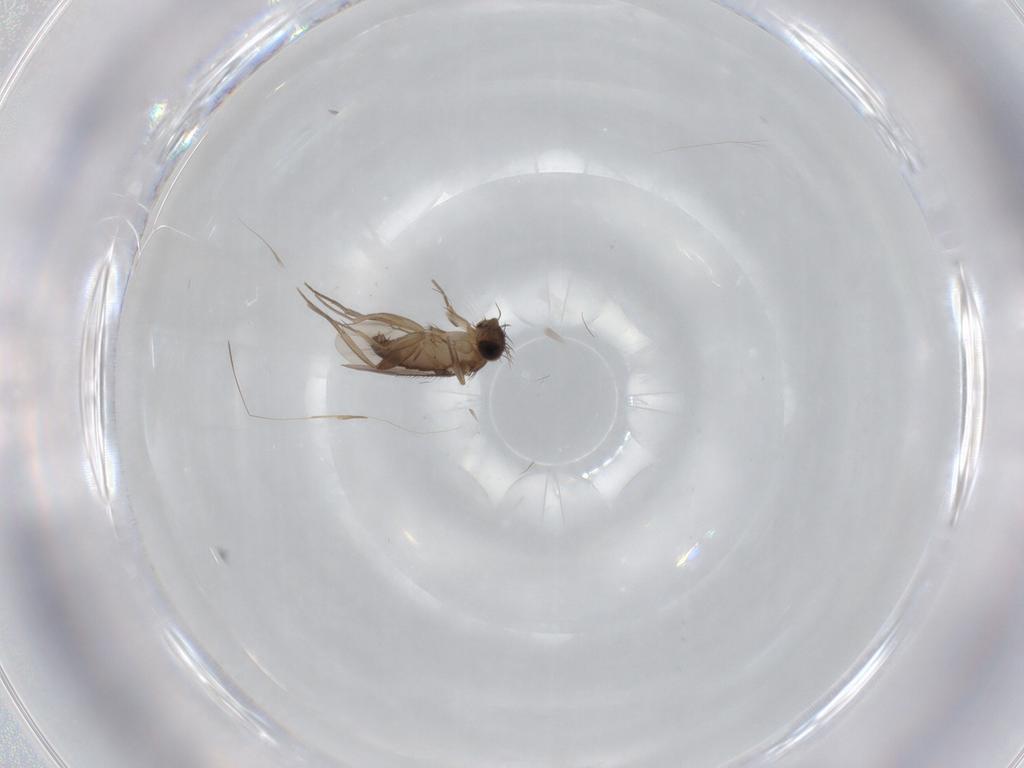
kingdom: Animalia
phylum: Arthropoda
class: Insecta
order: Diptera
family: Phoridae
